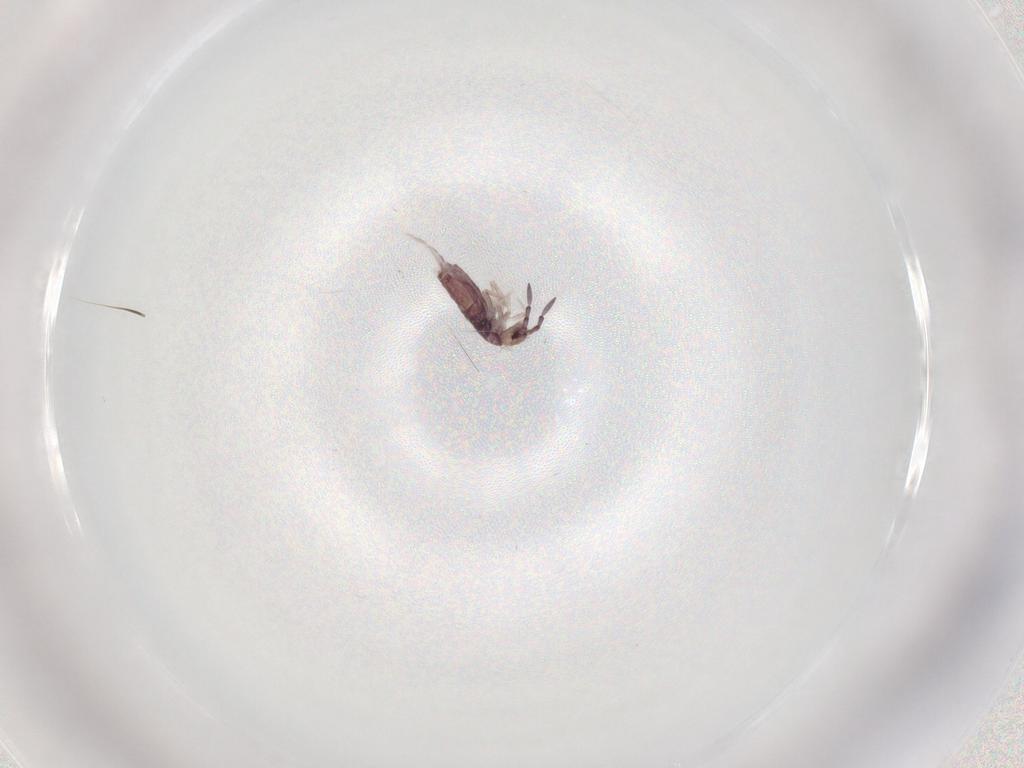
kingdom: Animalia
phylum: Arthropoda
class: Collembola
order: Entomobryomorpha
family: Entomobryidae
